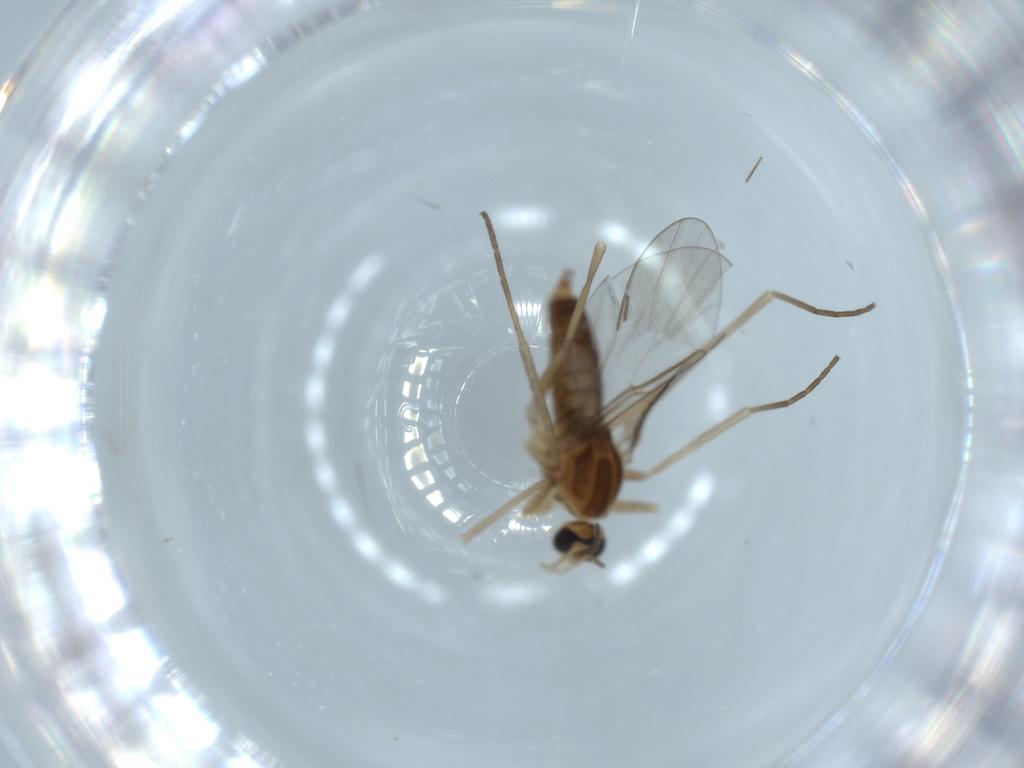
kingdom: Animalia
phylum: Arthropoda
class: Insecta
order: Diptera
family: Cecidomyiidae
